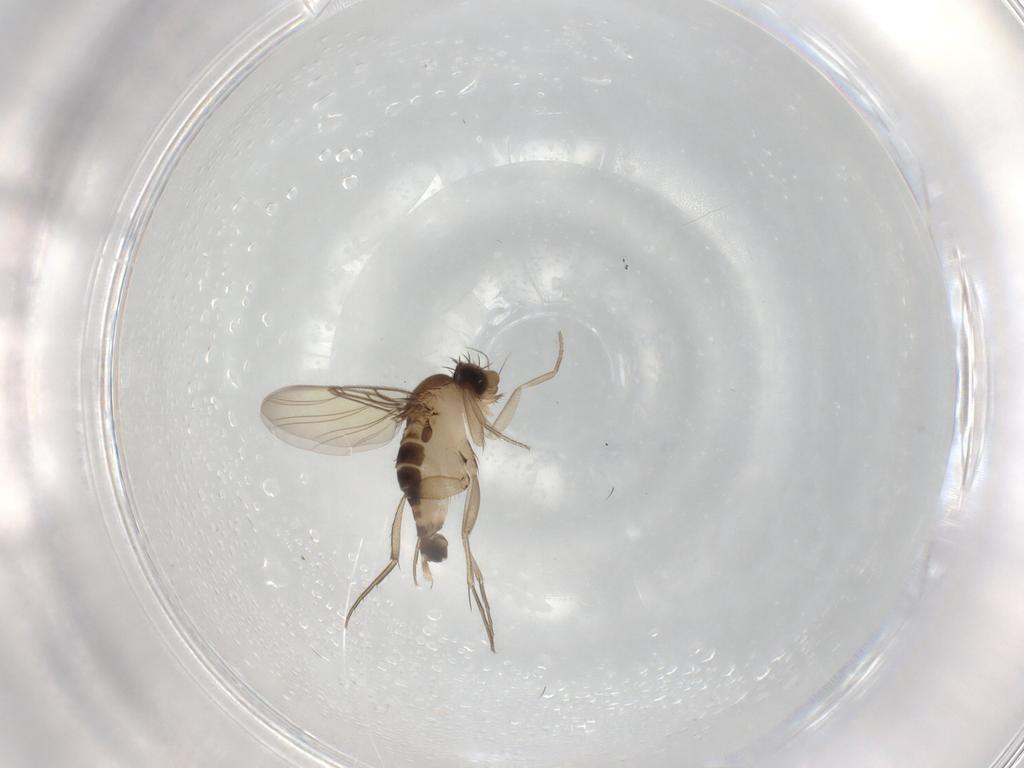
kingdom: Animalia
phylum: Arthropoda
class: Insecta
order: Diptera
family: Phoridae
